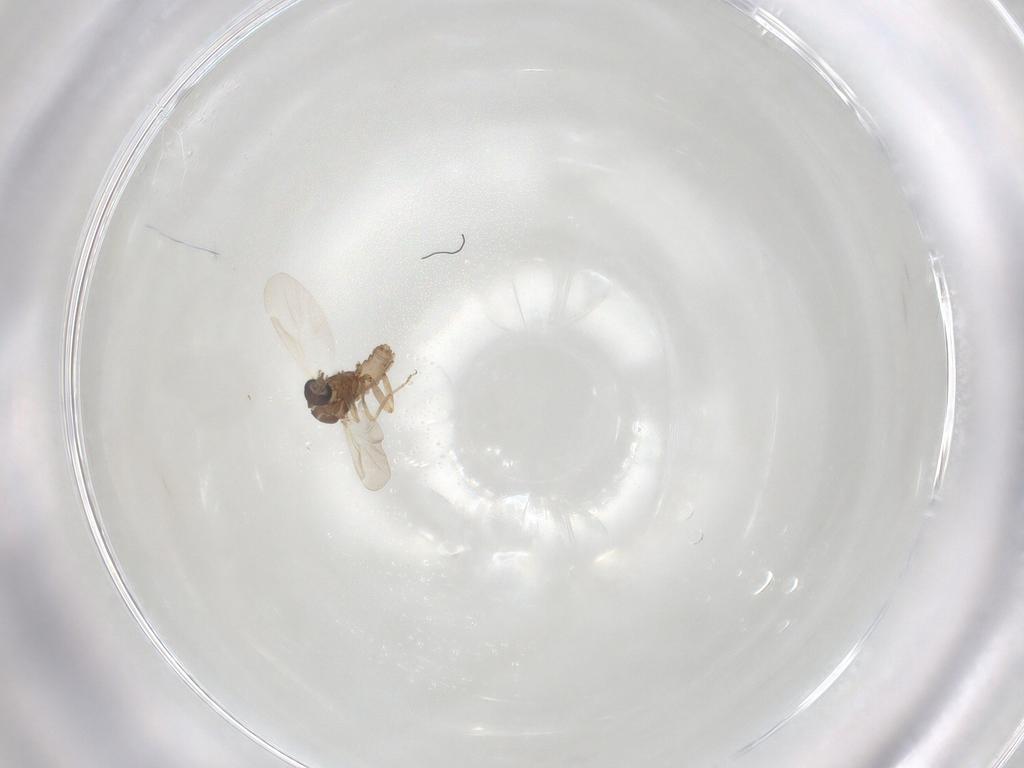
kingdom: Animalia
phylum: Arthropoda
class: Insecta
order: Diptera
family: Ceratopogonidae
